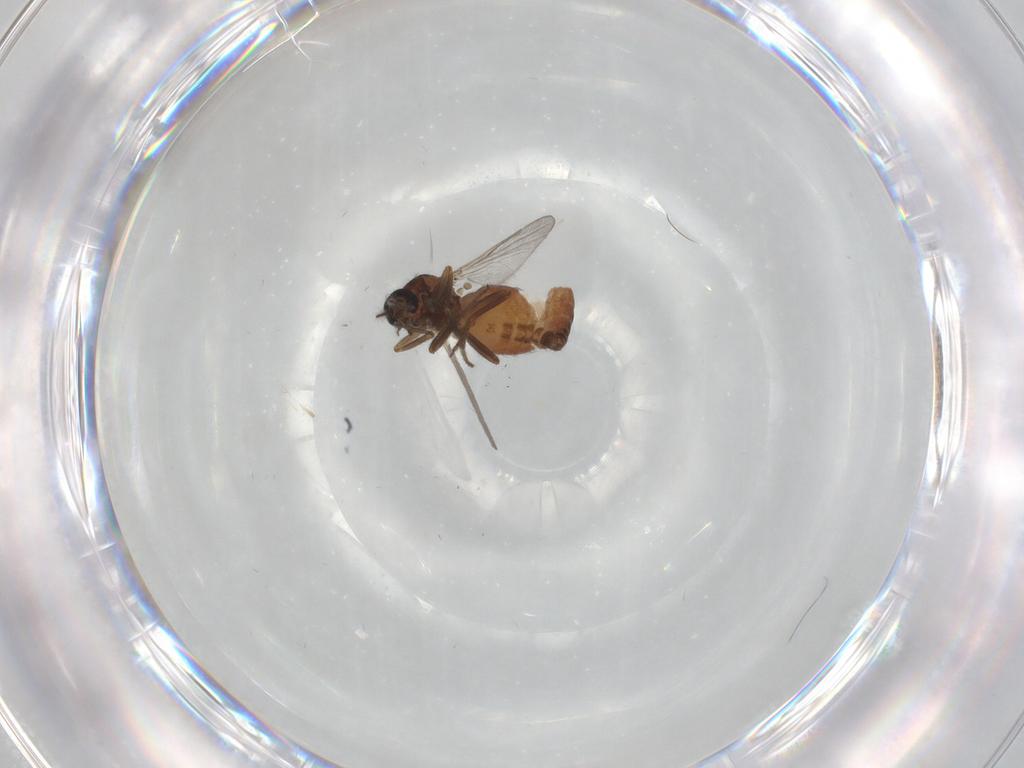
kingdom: Animalia
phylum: Arthropoda
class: Insecta
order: Diptera
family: Ceratopogonidae
